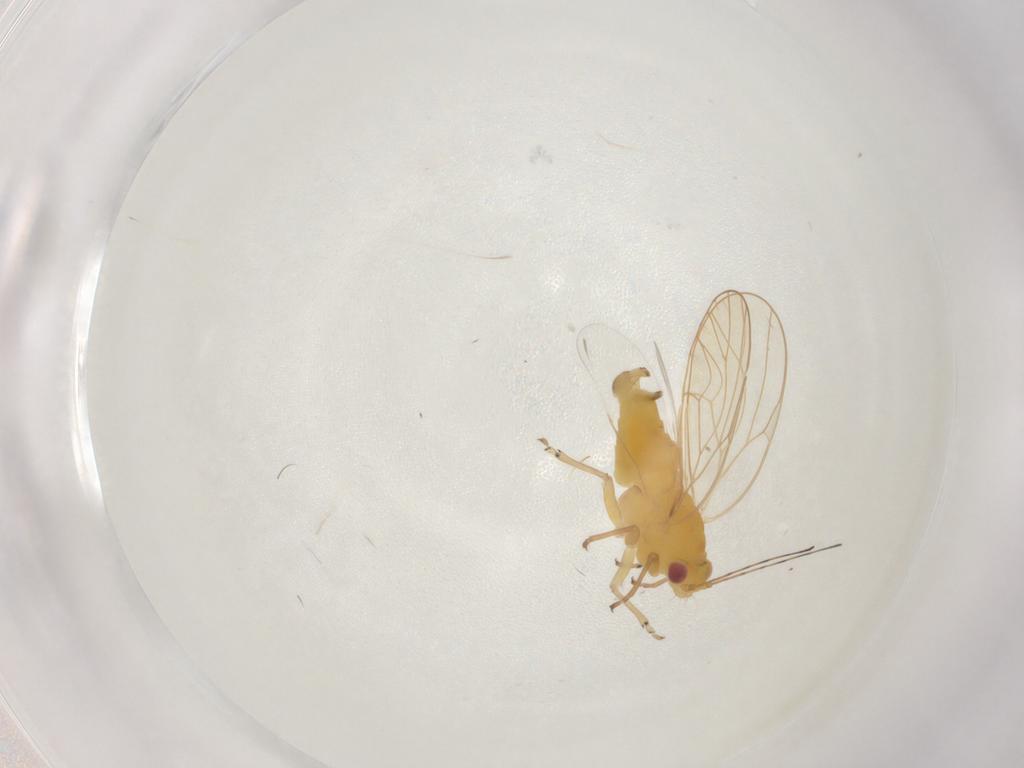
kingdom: Animalia
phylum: Arthropoda
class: Insecta
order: Hemiptera
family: Psyllidae
